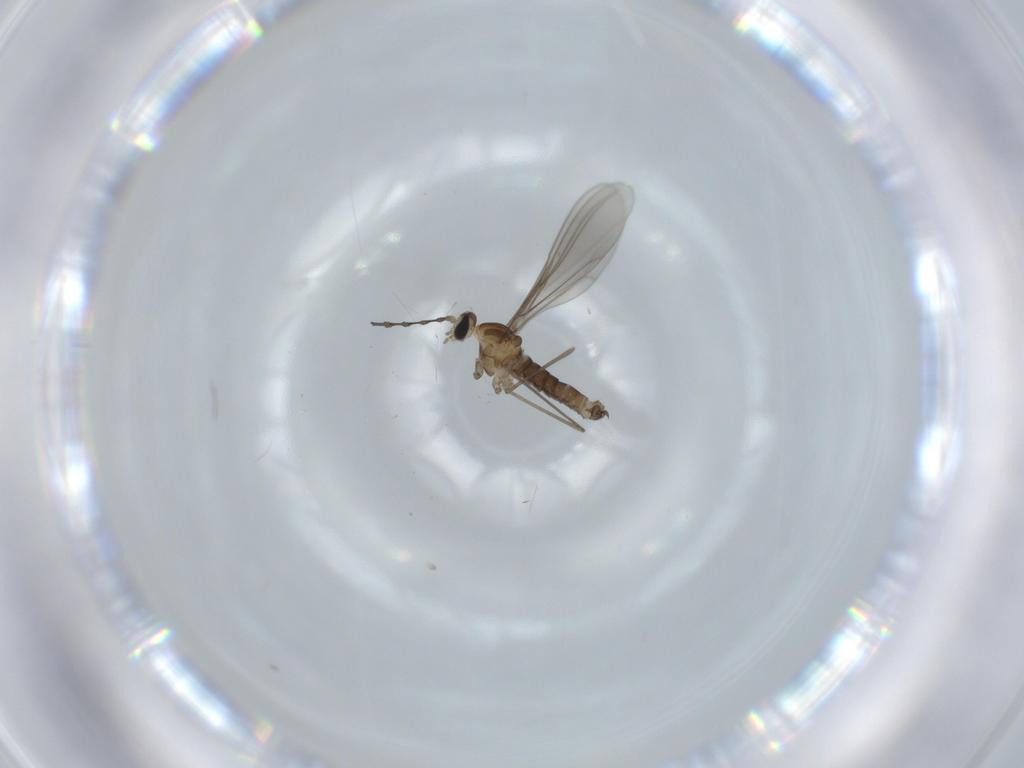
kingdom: Animalia
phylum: Arthropoda
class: Insecta
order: Diptera
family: Cecidomyiidae
